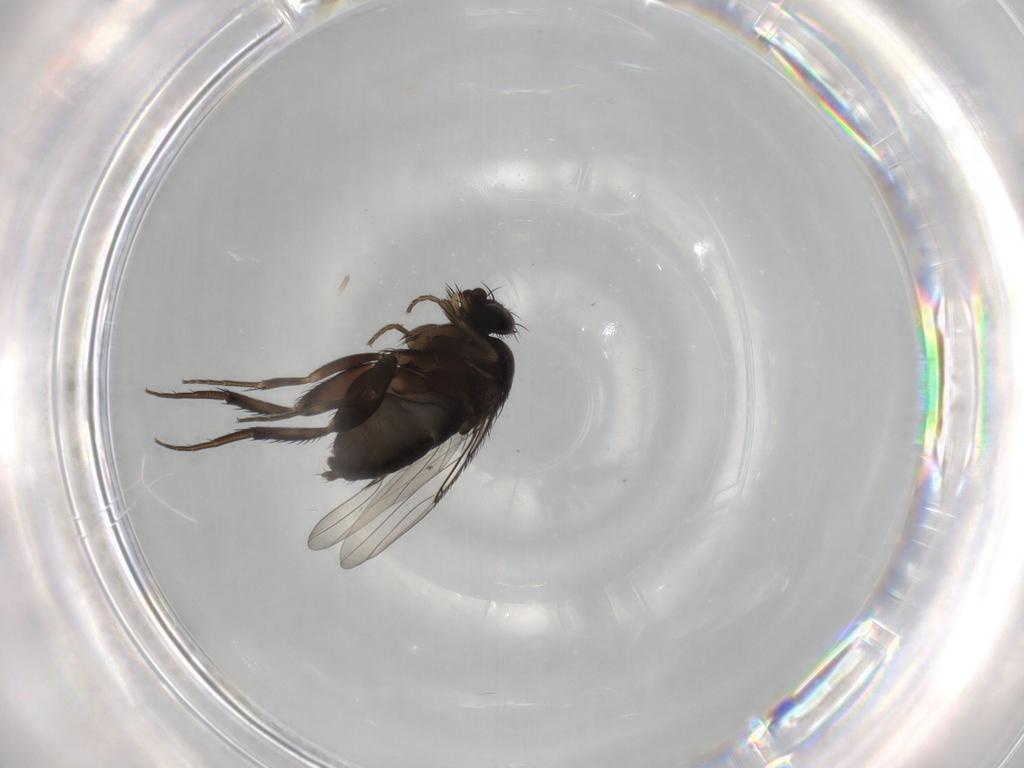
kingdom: Animalia
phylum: Arthropoda
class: Insecta
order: Diptera
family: Phoridae
